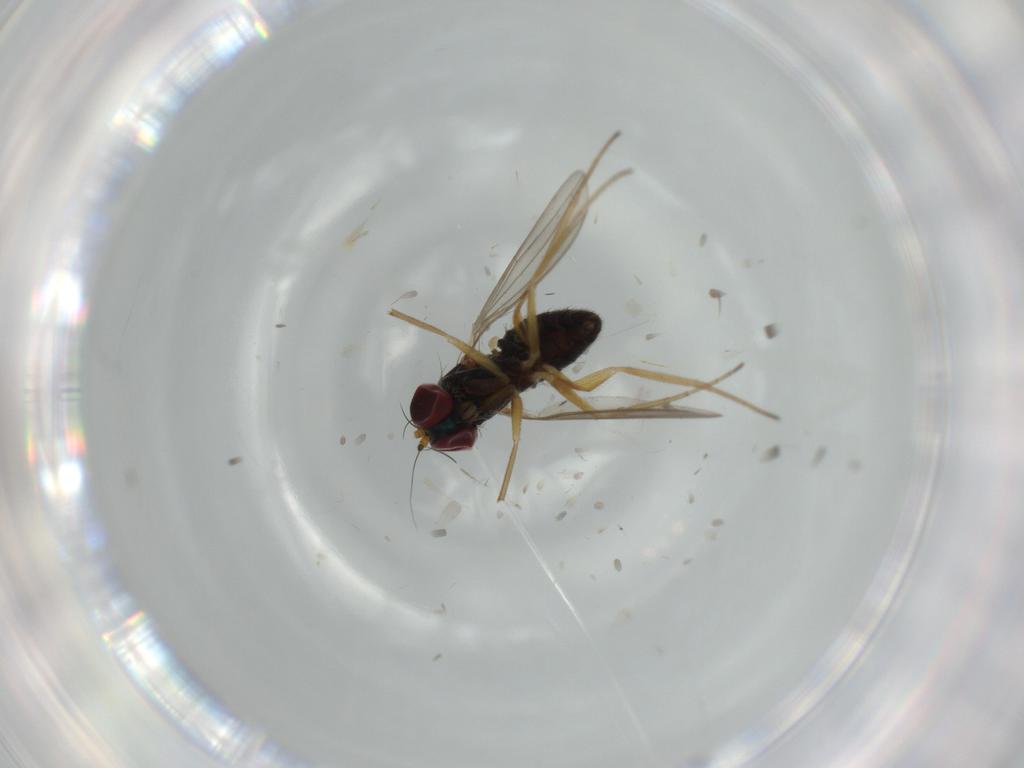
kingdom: Animalia
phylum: Arthropoda
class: Insecta
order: Diptera
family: Dolichopodidae
